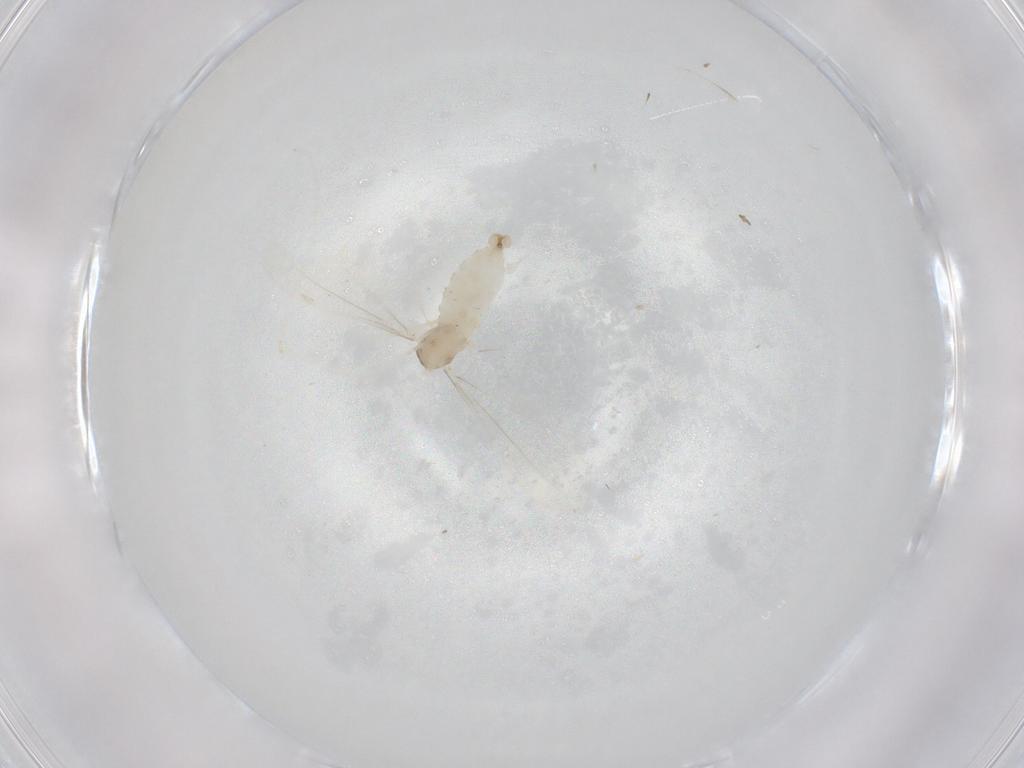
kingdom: Animalia
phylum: Arthropoda
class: Insecta
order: Diptera
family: Cecidomyiidae
